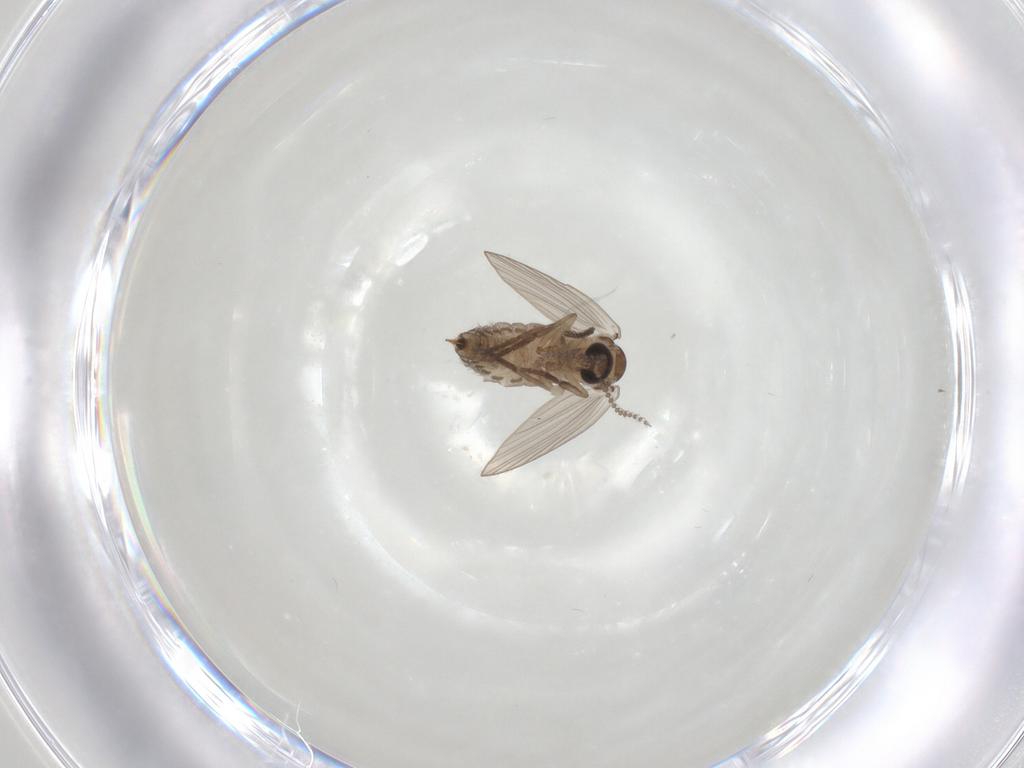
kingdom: Animalia
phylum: Arthropoda
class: Insecta
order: Diptera
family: Psychodidae
